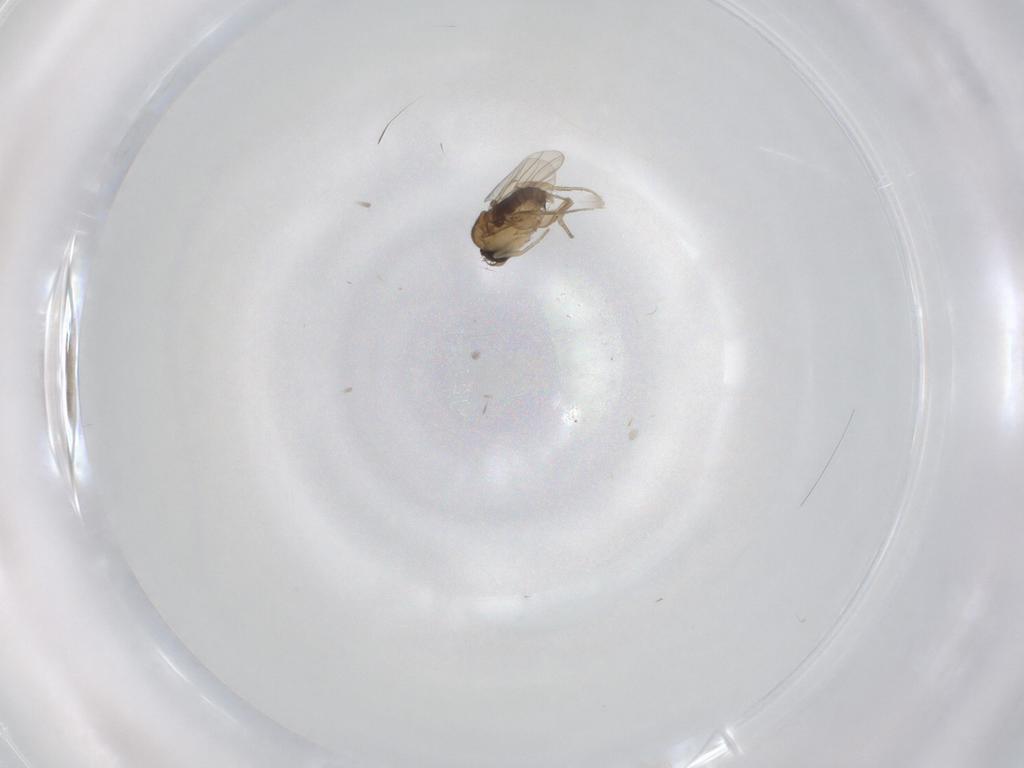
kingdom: Animalia
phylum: Arthropoda
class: Insecta
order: Diptera
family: Phoridae
